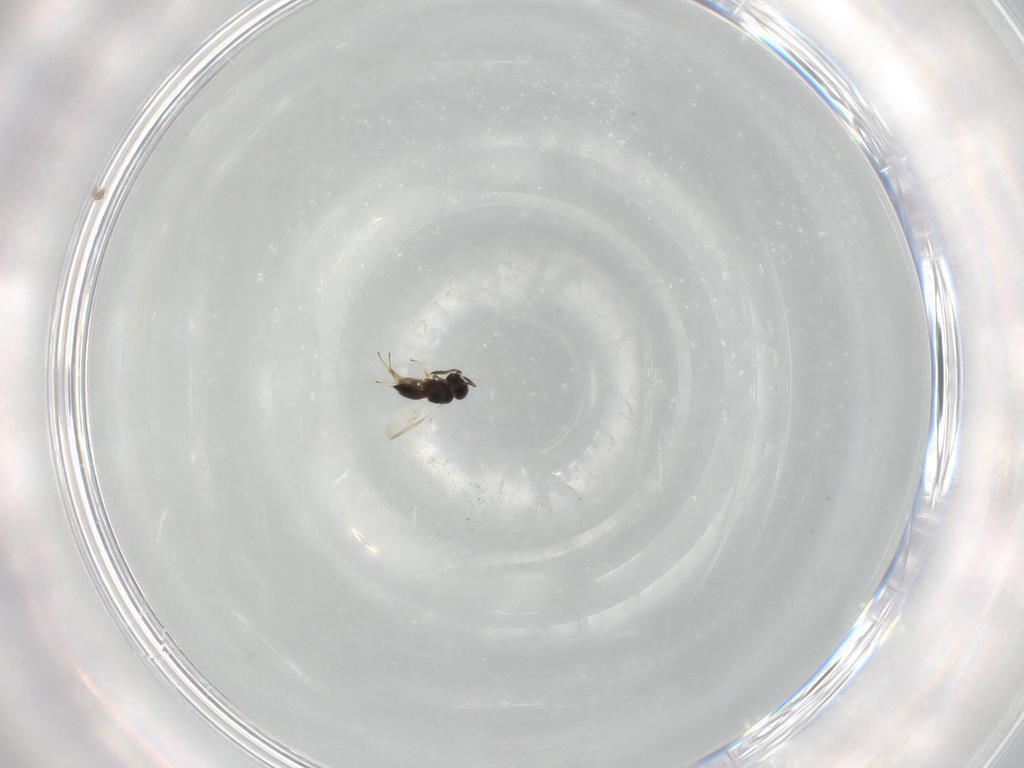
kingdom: Animalia
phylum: Arthropoda
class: Insecta
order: Hymenoptera
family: Scelionidae
